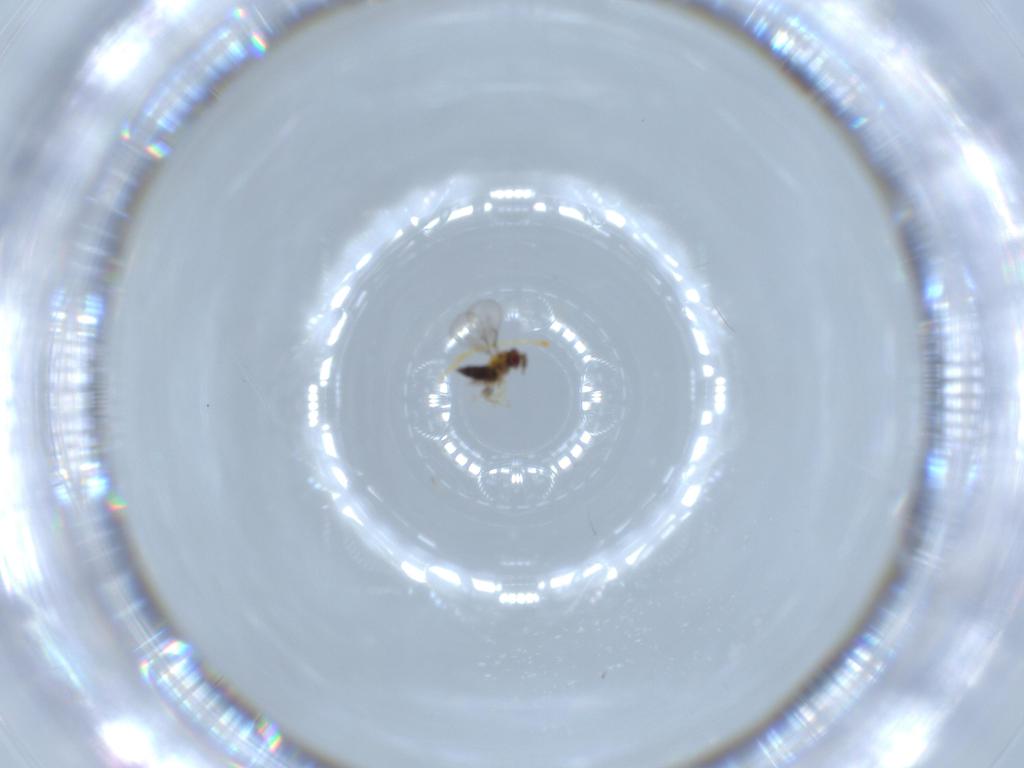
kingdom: Animalia
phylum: Arthropoda
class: Insecta
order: Hymenoptera
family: Trichogrammatidae
